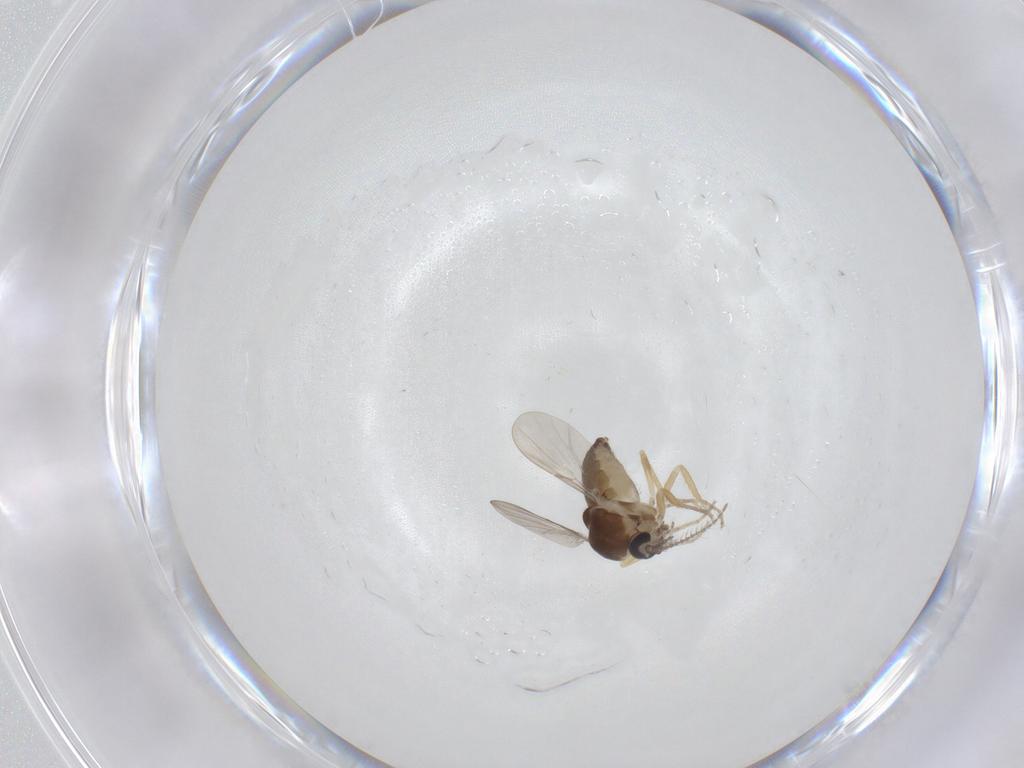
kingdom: Animalia
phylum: Arthropoda
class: Insecta
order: Diptera
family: Ceratopogonidae
